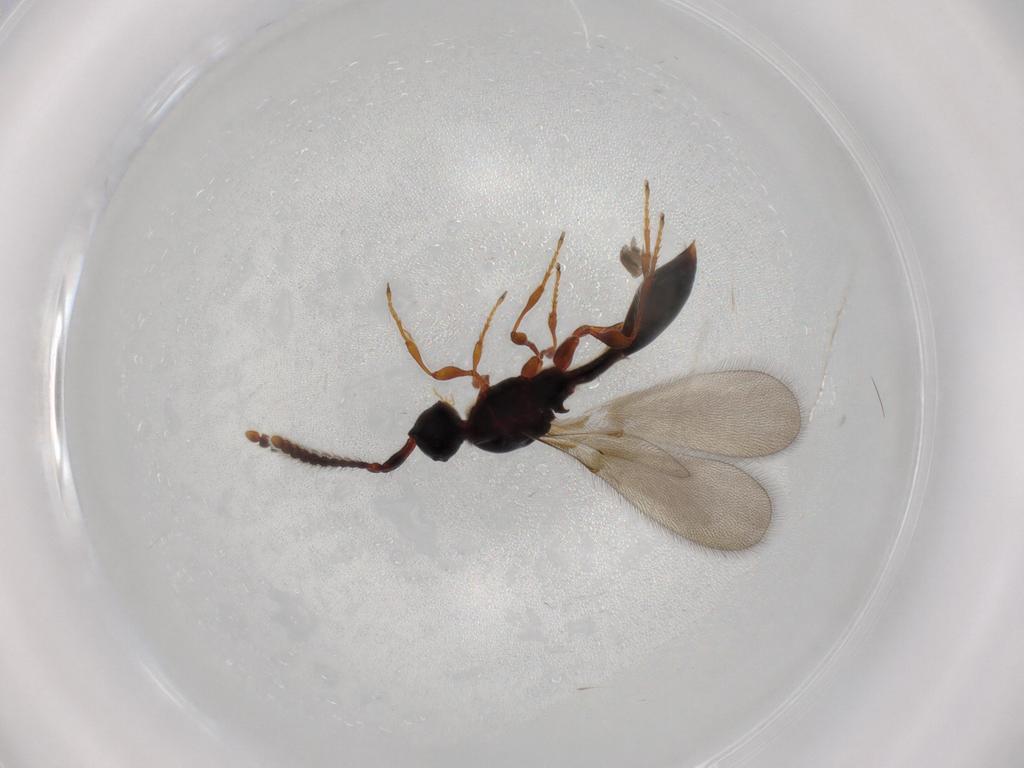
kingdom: Animalia
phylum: Arthropoda
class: Insecta
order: Hymenoptera
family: Diapriidae
